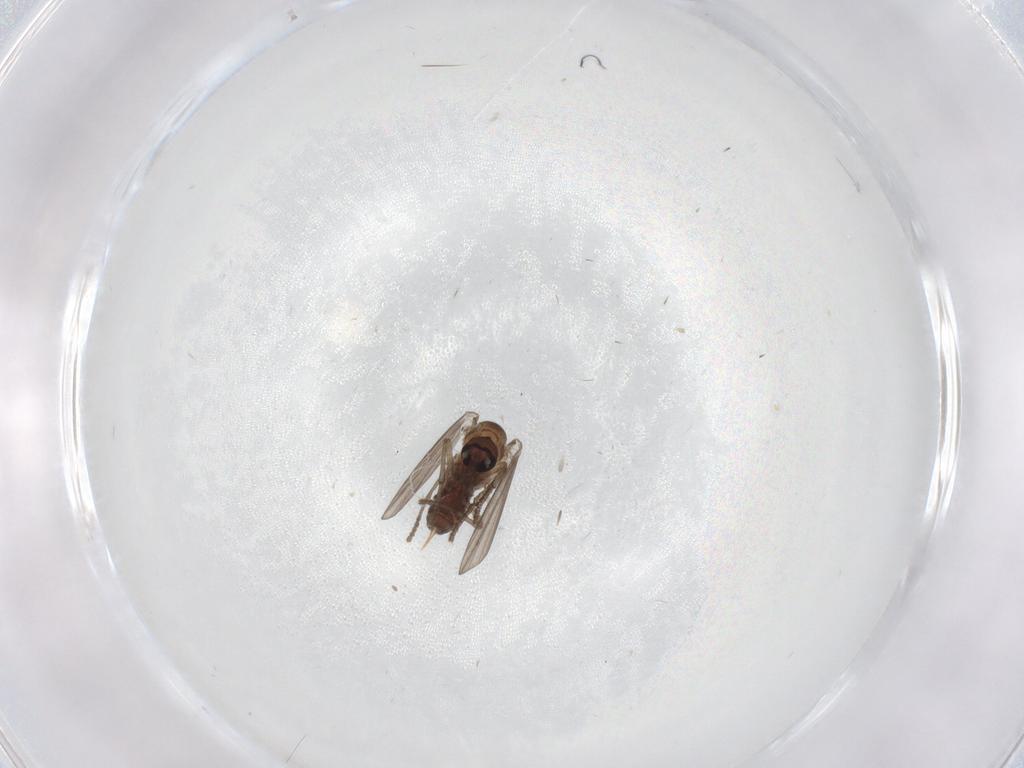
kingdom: Animalia
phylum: Arthropoda
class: Insecta
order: Diptera
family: Psychodidae
